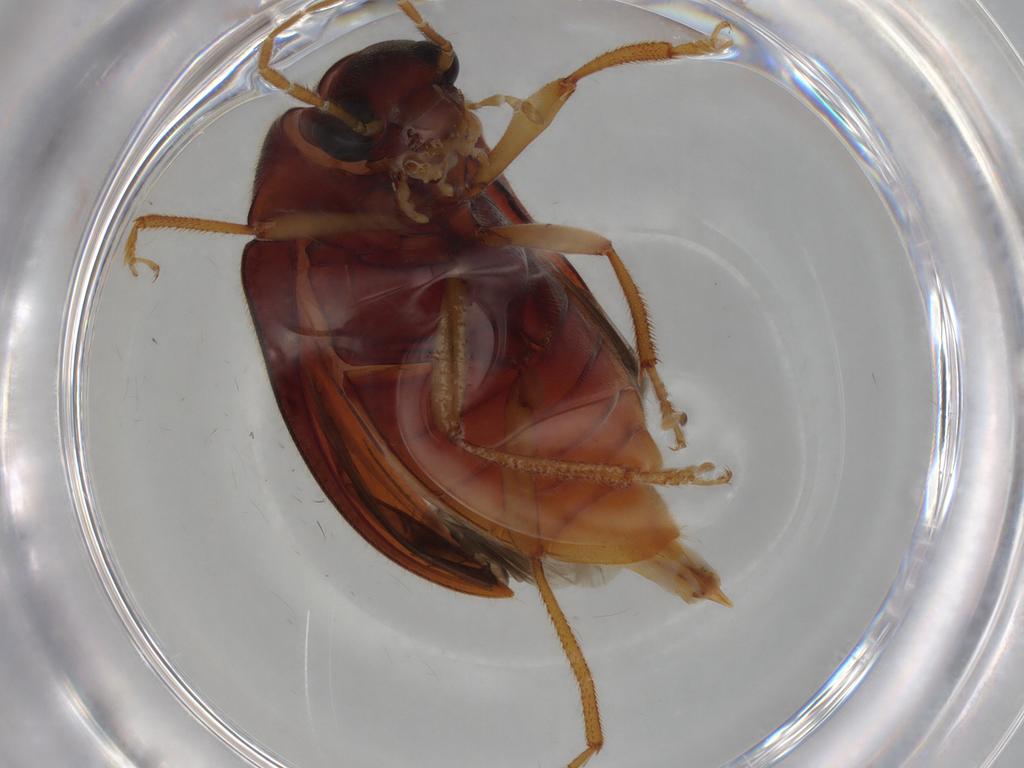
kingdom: Animalia
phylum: Arthropoda
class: Insecta
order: Coleoptera
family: Ptilodactylidae
